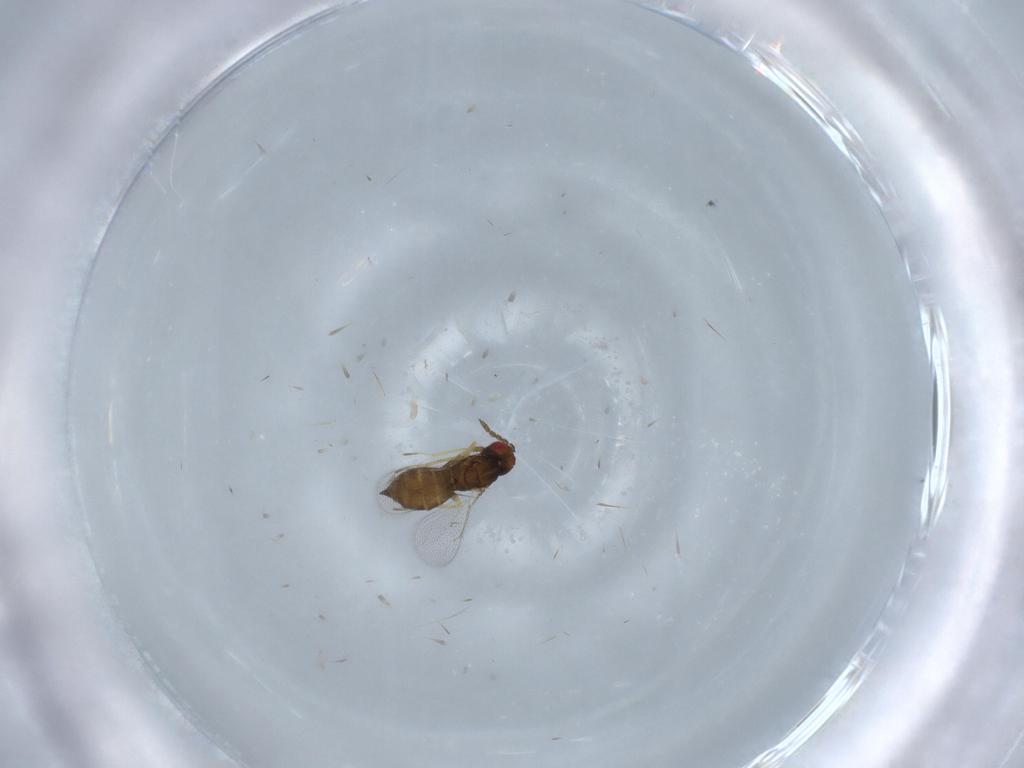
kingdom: Animalia
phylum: Arthropoda
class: Insecta
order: Hymenoptera
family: Eulophidae
